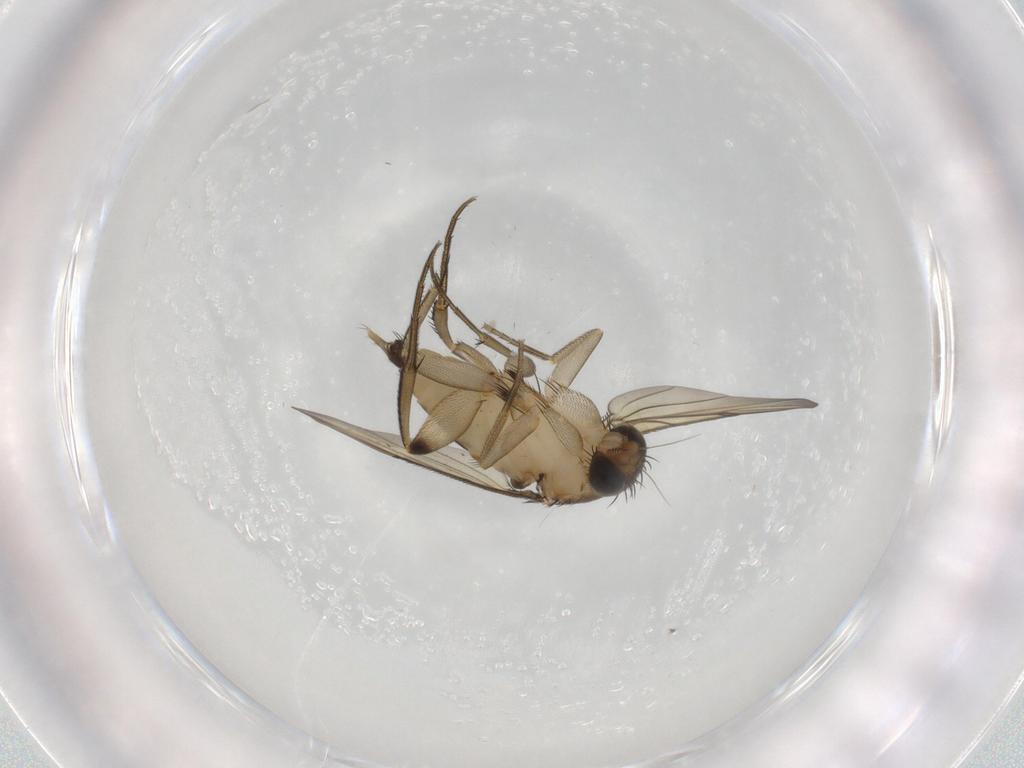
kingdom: Animalia
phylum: Arthropoda
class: Insecta
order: Diptera
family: Phoridae
